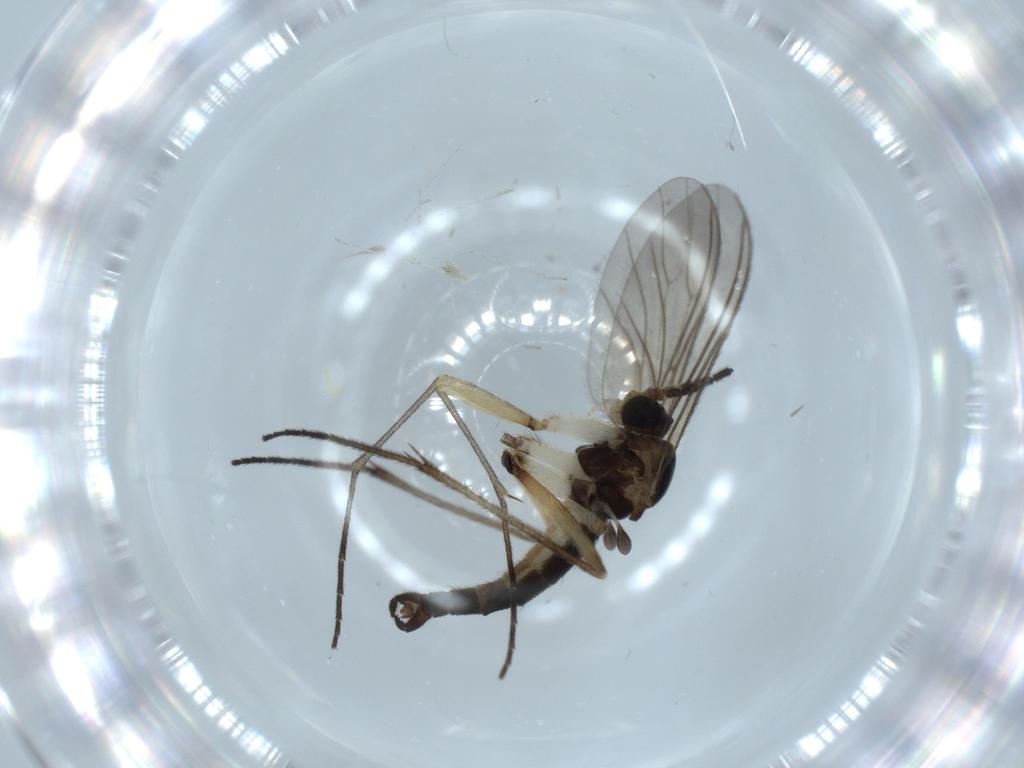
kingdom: Animalia
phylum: Arthropoda
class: Insecta
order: Diptera
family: Sciaridae
